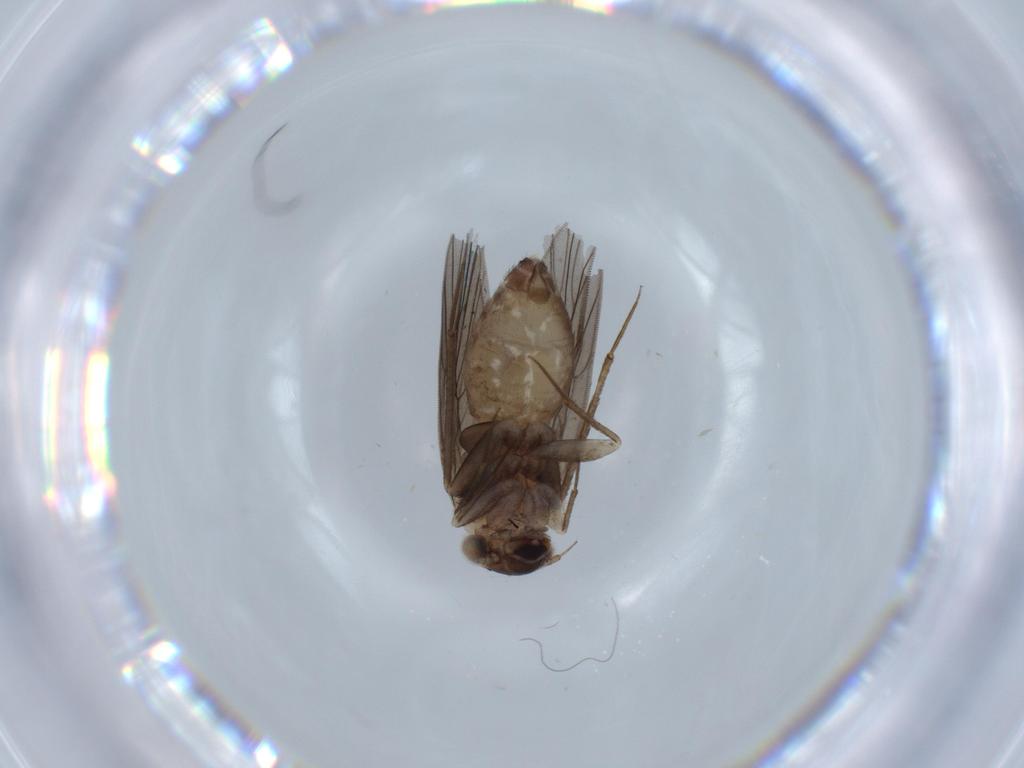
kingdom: Animalia
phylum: Arthropoda
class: Insecta
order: Psocodea
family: Lepidopsocidae
